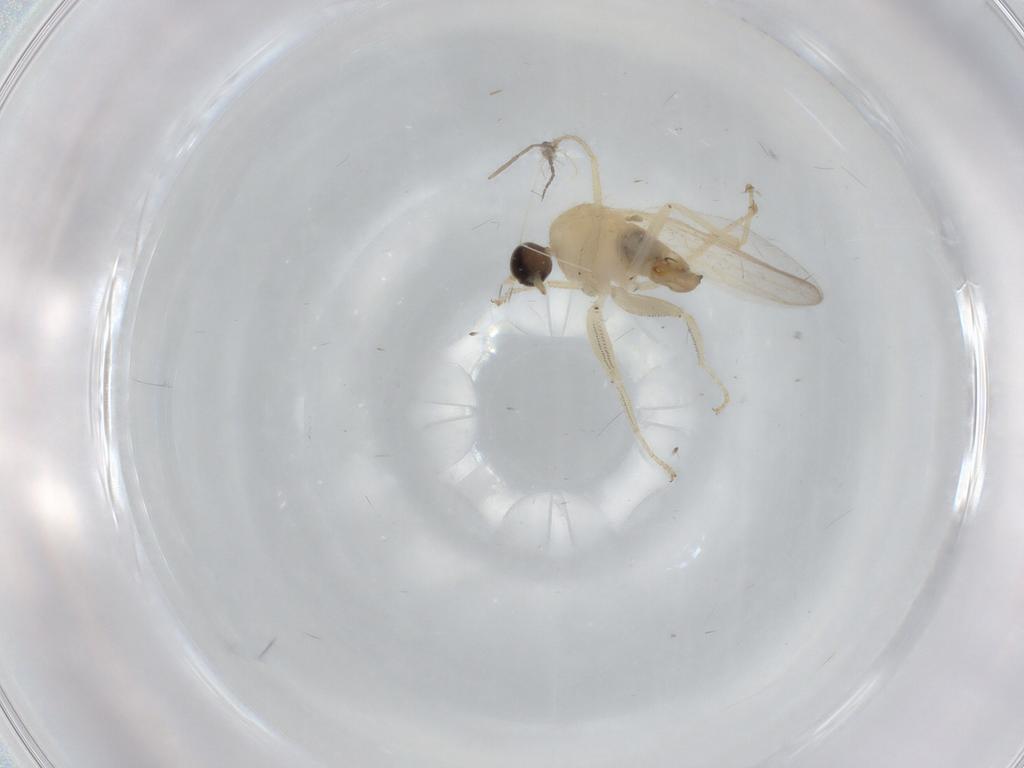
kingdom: Animalia
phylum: Arthropoda
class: Insecta
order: Diptera
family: Hybotidae
